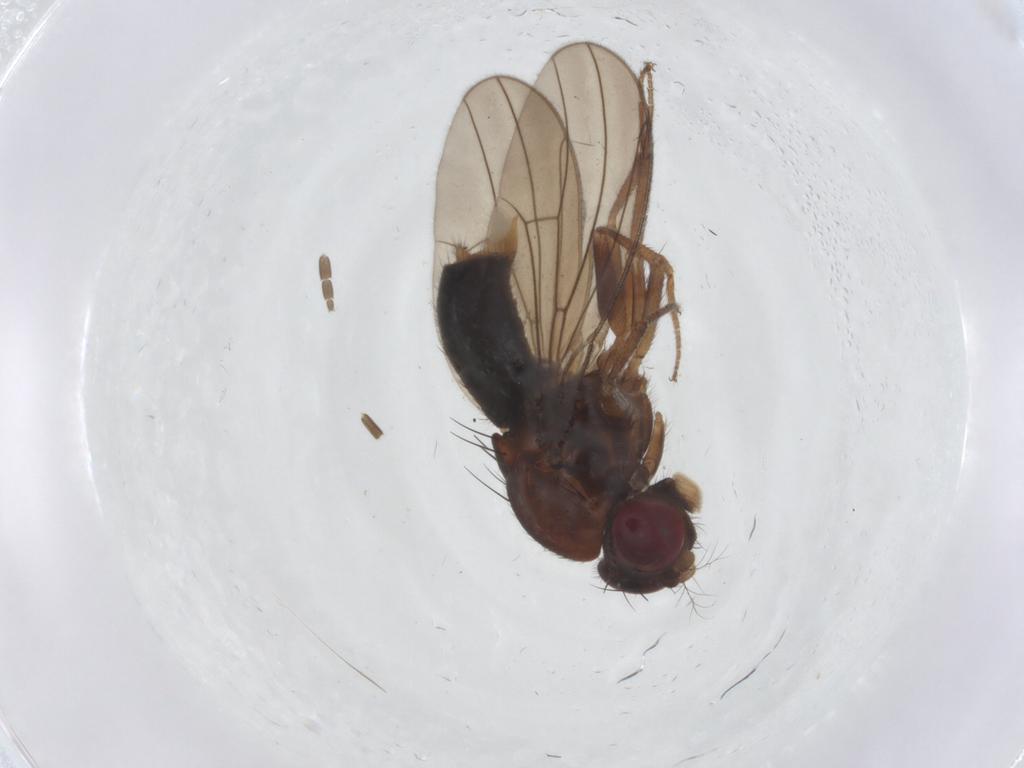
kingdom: Animalia
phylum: Arthropoda
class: Insecta
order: Diptera
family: Drosophilidae
